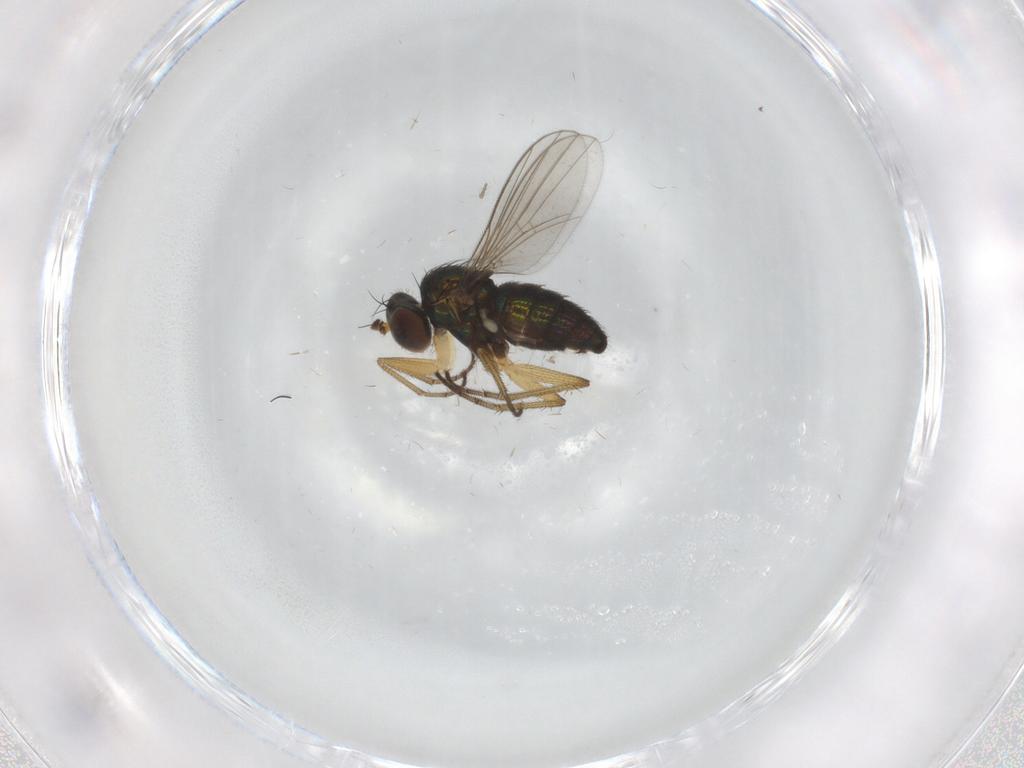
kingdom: Animalia
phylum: Arthropoda
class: Insecta
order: Diptera
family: Limoniidae
